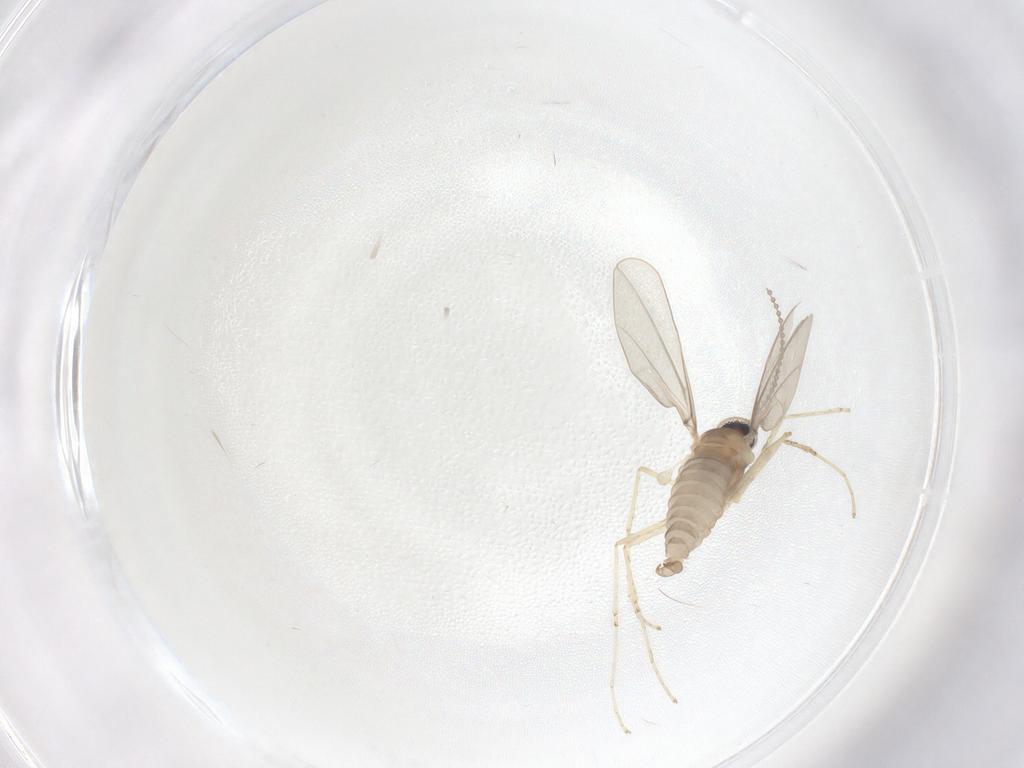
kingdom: Animalia
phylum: Arthropoda
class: Insecta
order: Diptera
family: Cecidomyiidae
